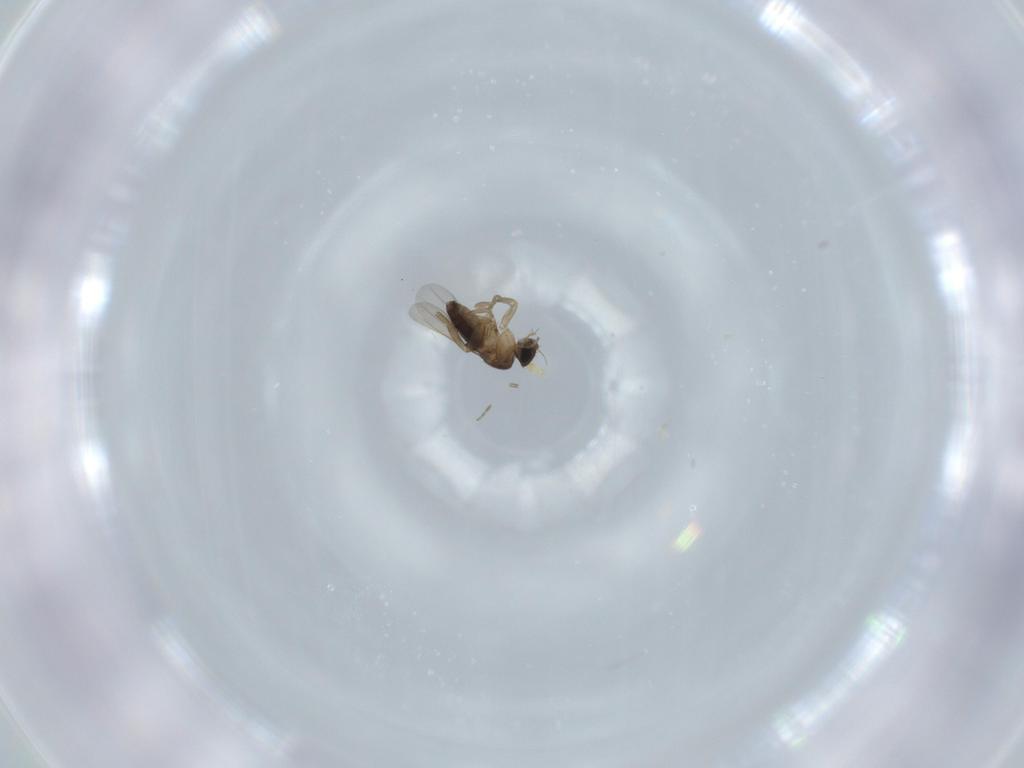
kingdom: Animalia
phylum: Arthropoda
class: Insecta
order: Diptera
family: Phoridae
